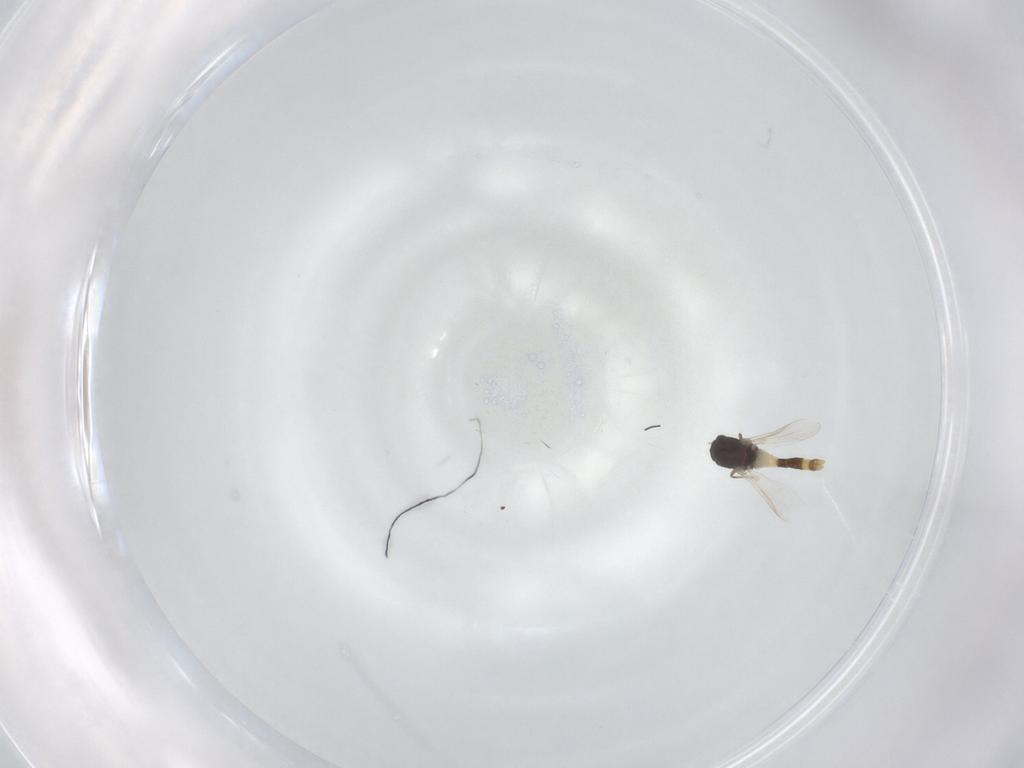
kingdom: Animalia
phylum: Arthropoda
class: Insecta
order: Diptera
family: Chironomidae
